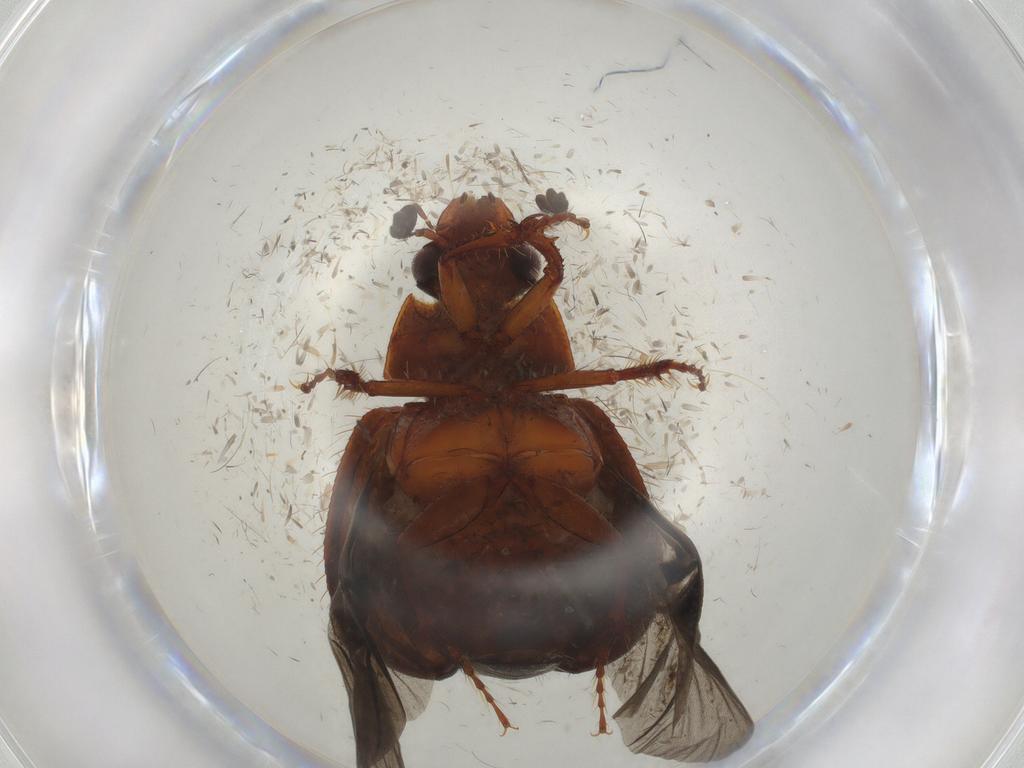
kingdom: Animalia
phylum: Arthropoda
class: Insecta
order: Coleoptera
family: Hybosoridae
